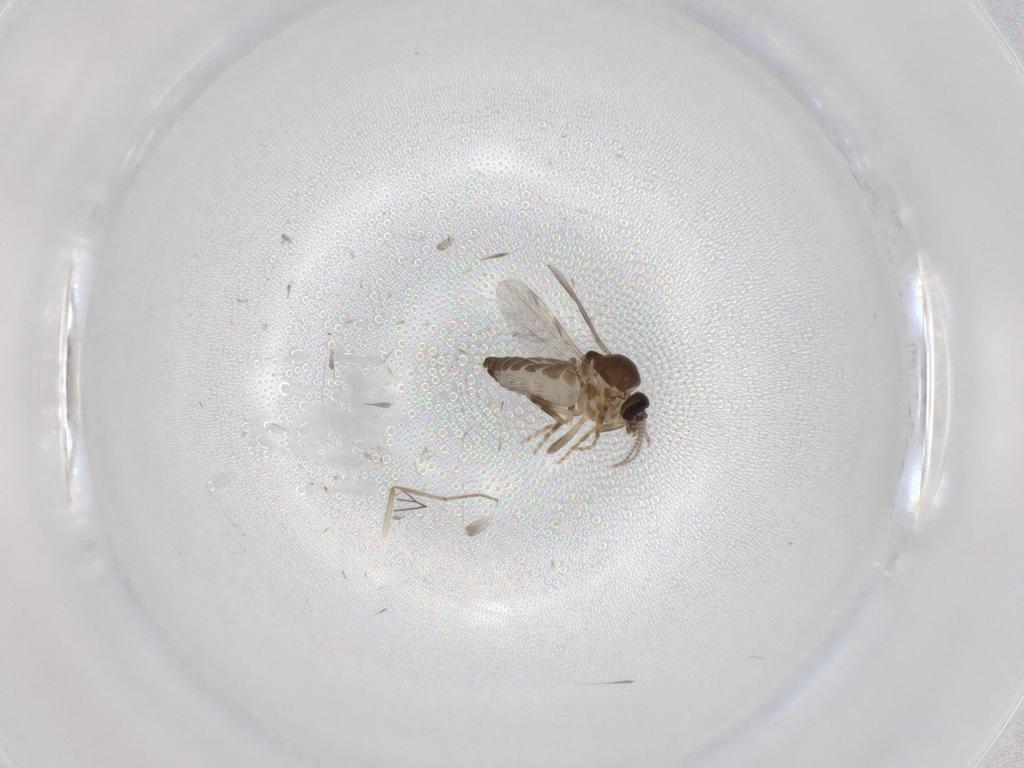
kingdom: Animalia
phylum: Arthropoda
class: Insecta
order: Diptera
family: Ceratopogonidae
